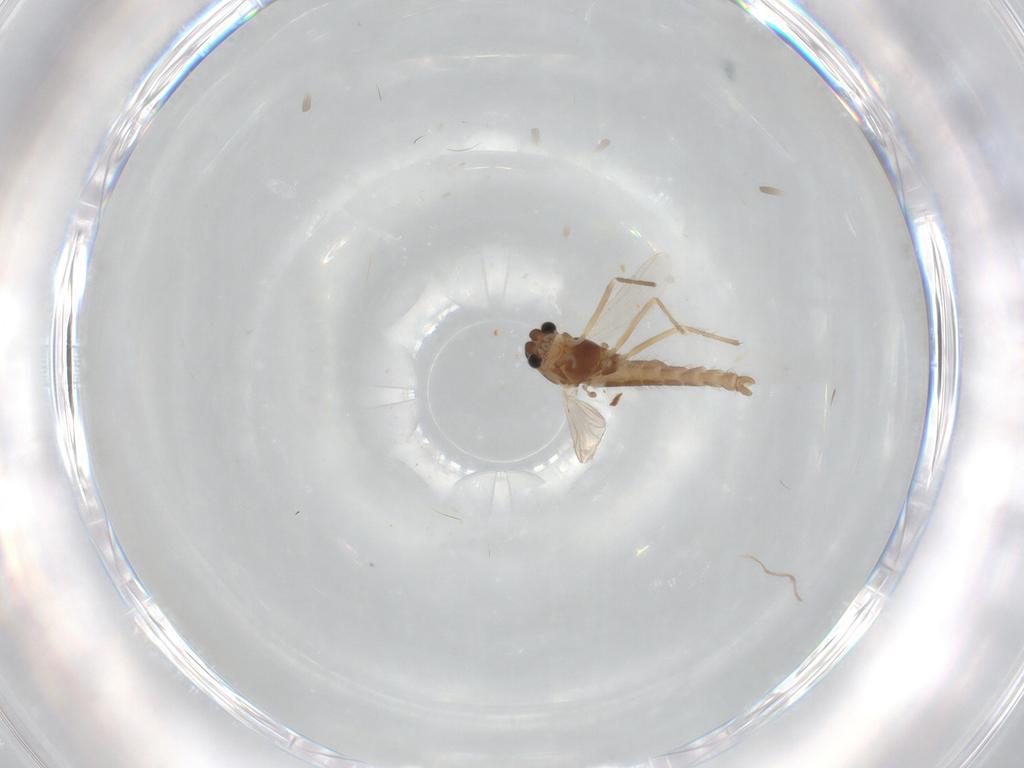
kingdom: Animalia
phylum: Arthropoda
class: Insecta
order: Diptera
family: Chironomidae
